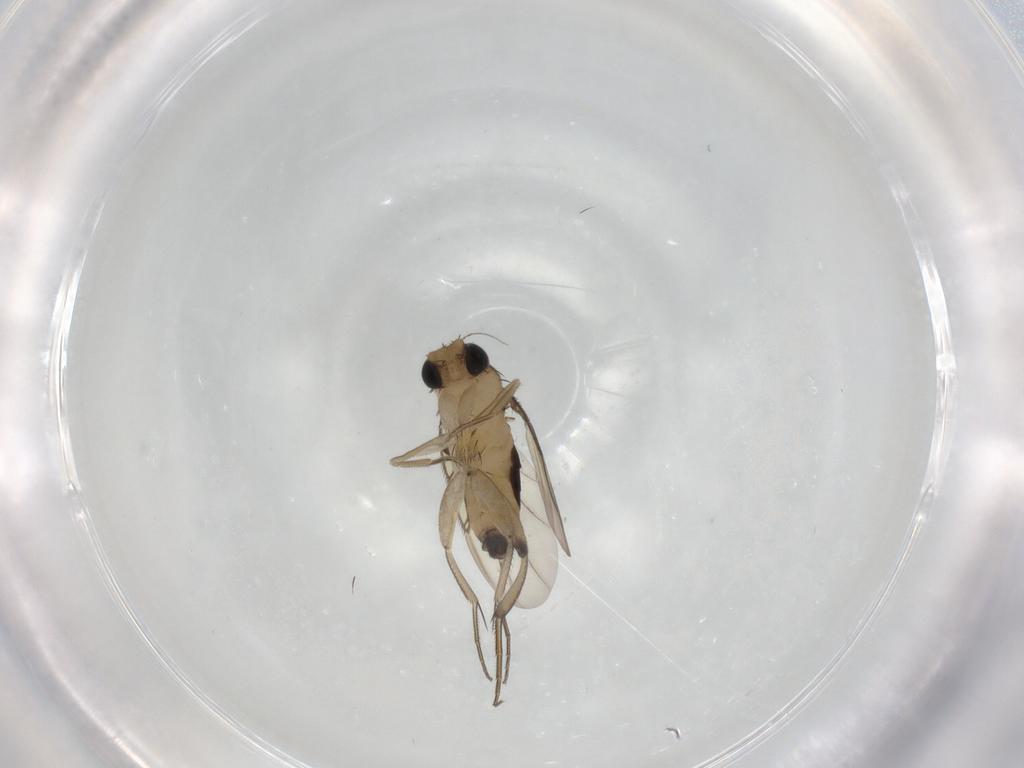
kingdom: Animalia
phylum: Arthropoda
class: Insecta
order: Diptera
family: Phoridae
